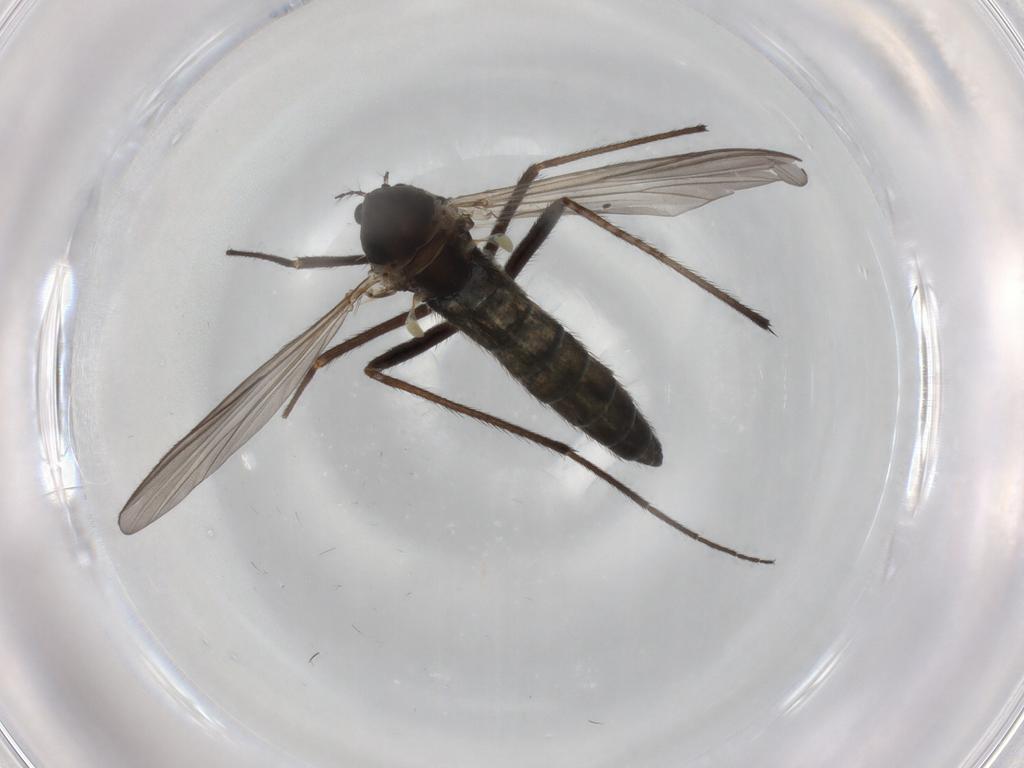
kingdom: Animalia
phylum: Arthropoda
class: Insecta
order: Diptera
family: Chironomidae
